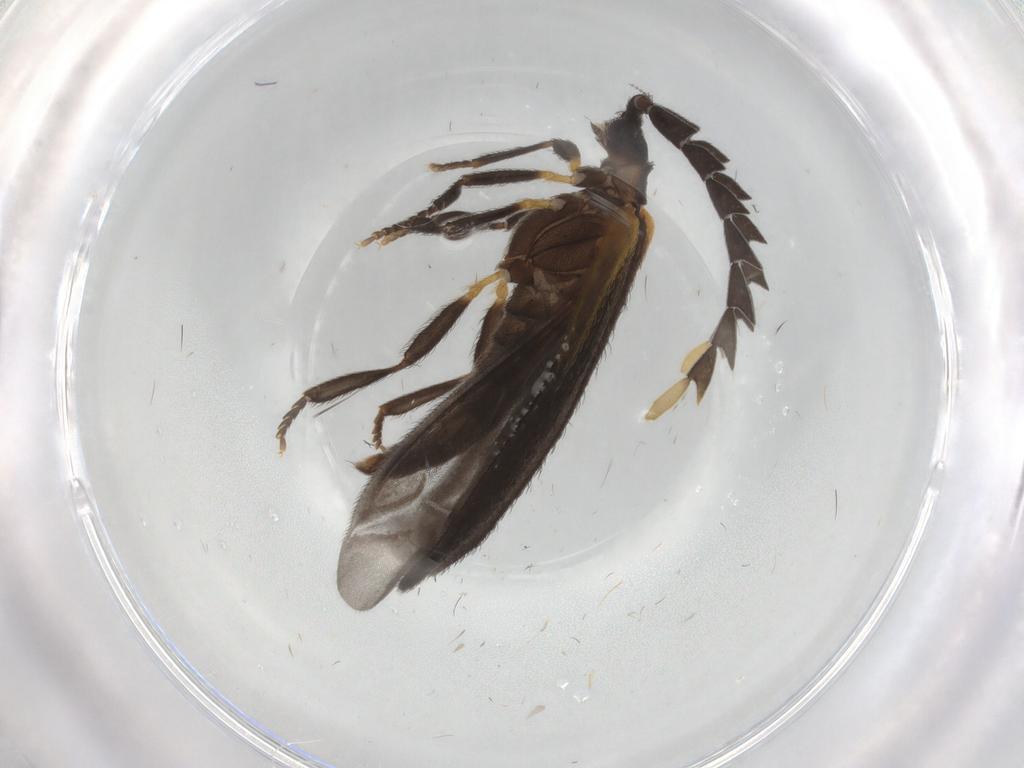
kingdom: Animalia
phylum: Arthropoda
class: Insecta
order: Coleoptera
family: Lycidae
